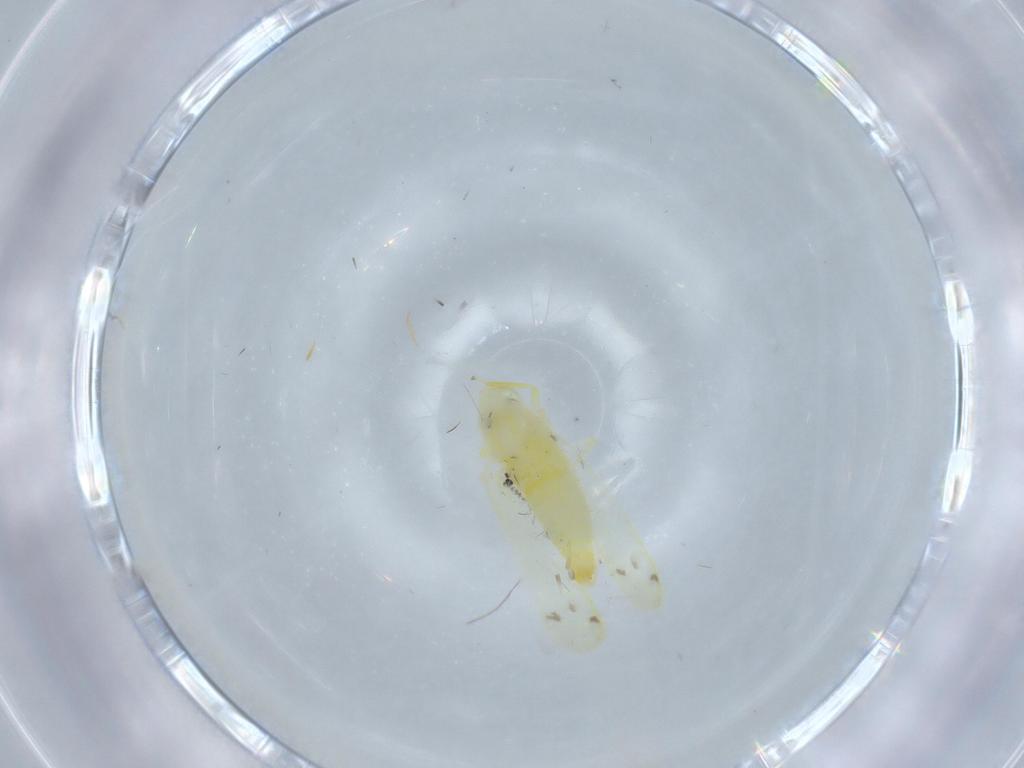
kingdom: Animalia
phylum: Arthropoda
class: Insecta
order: Hemiptera
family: Cicadellidae
